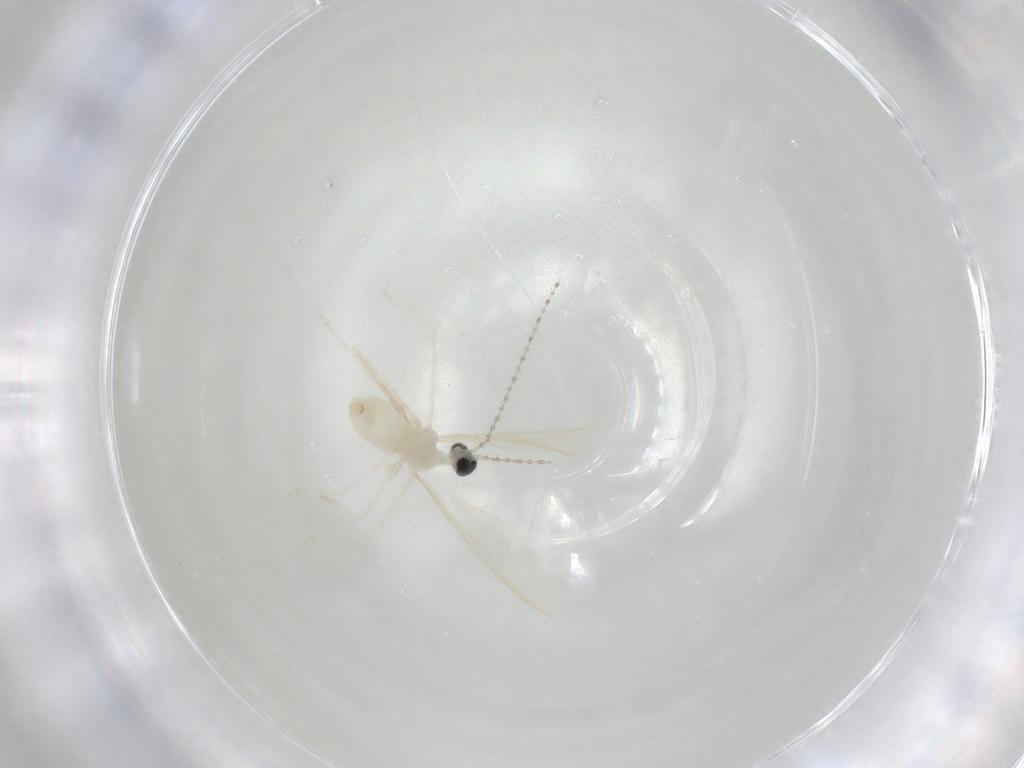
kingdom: Animalia
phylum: Arthropoda
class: Insecta
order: Diptera
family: Cecidomyiidae
